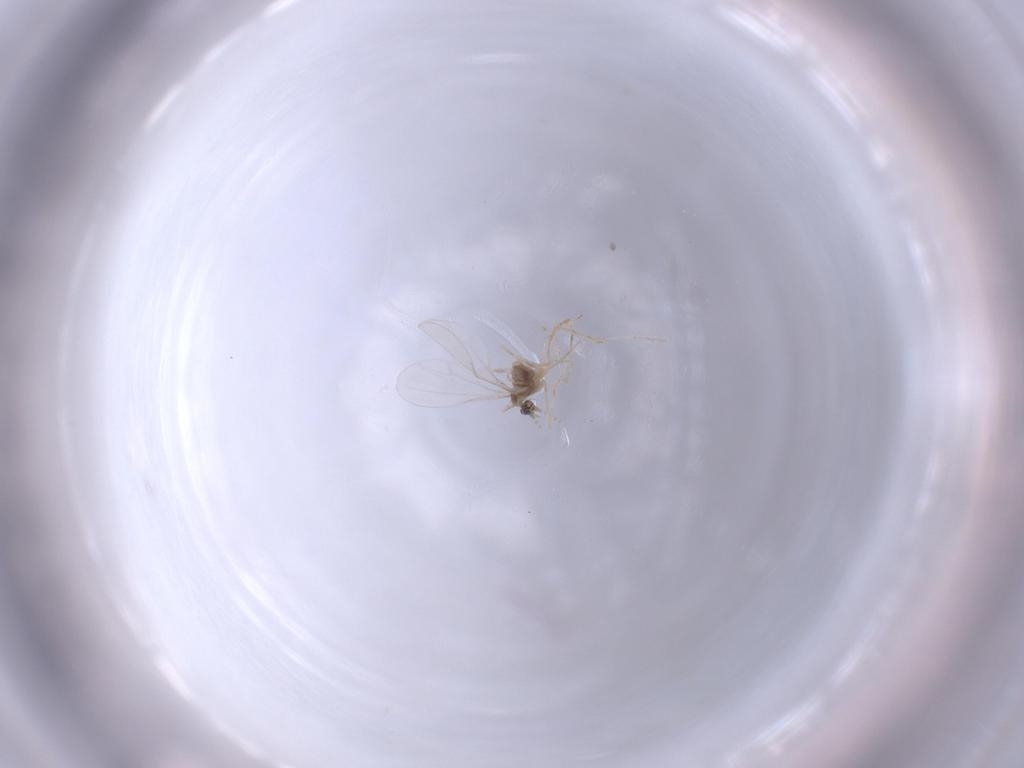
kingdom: Animalia
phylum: Arthropoda
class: Insecta
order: Diptera
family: Cecidomyiidae
